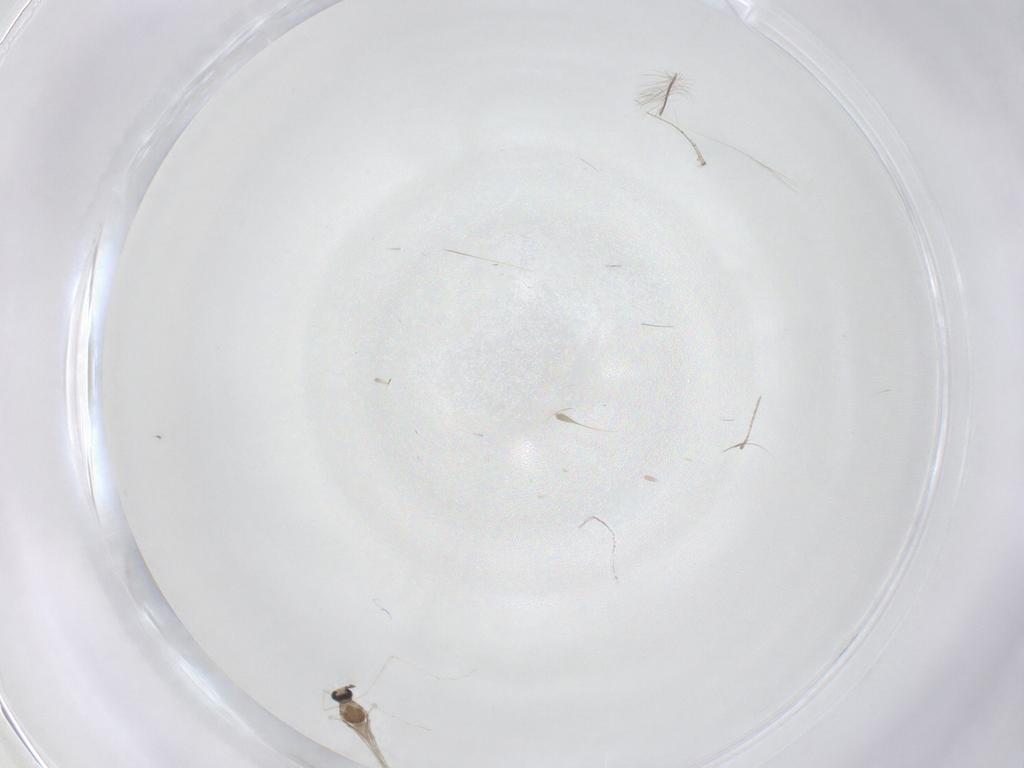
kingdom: Animalia
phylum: Arthropoda
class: Insecta
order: Diptera
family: Cecidomyiidae
